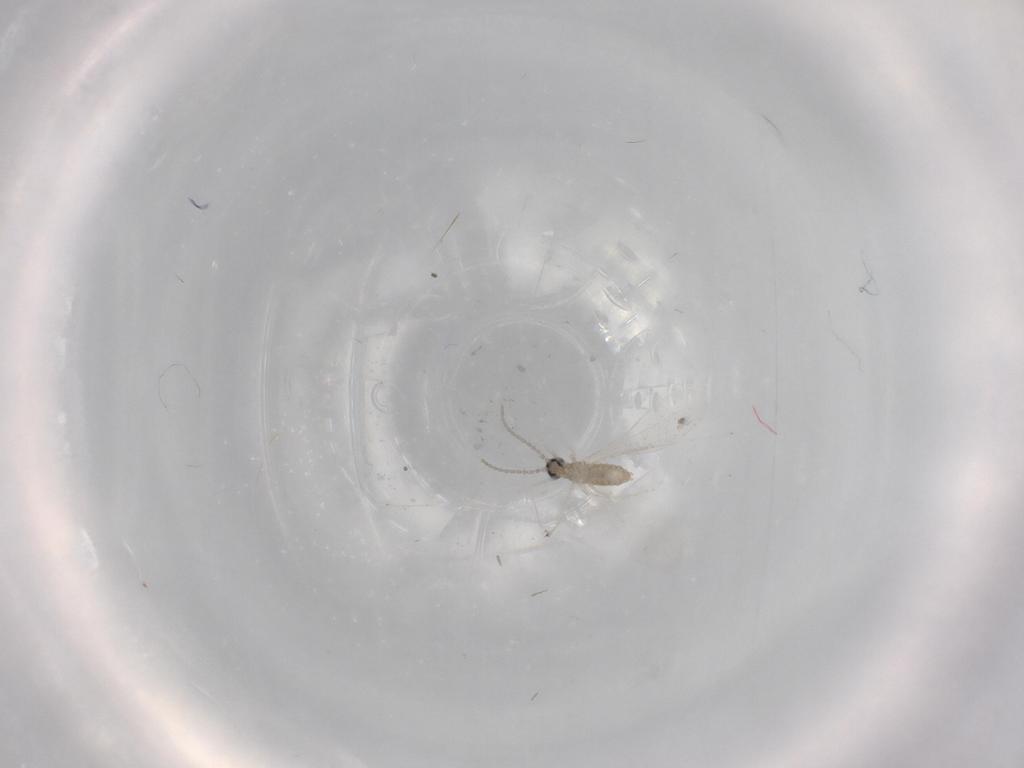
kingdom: Animalia
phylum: Arthropoda
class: Insecta
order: Diptera
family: Cecidomyiidae
